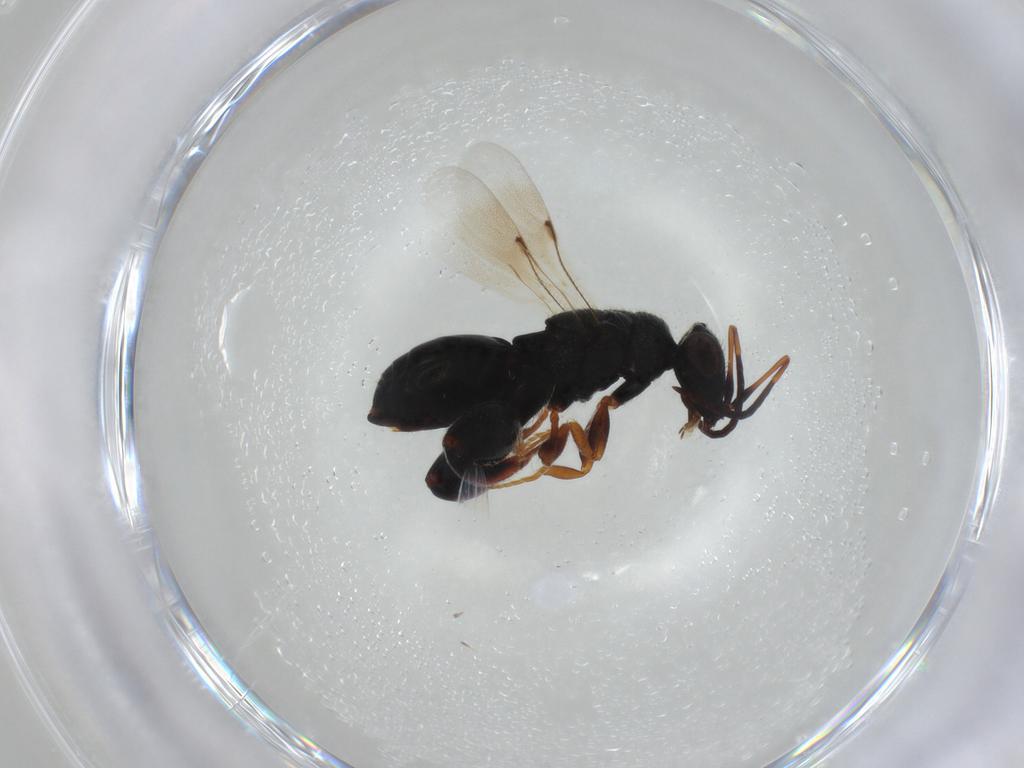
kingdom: Animalia
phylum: Arthropoda
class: Insecta
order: Hymenoptera
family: Chalcididae
